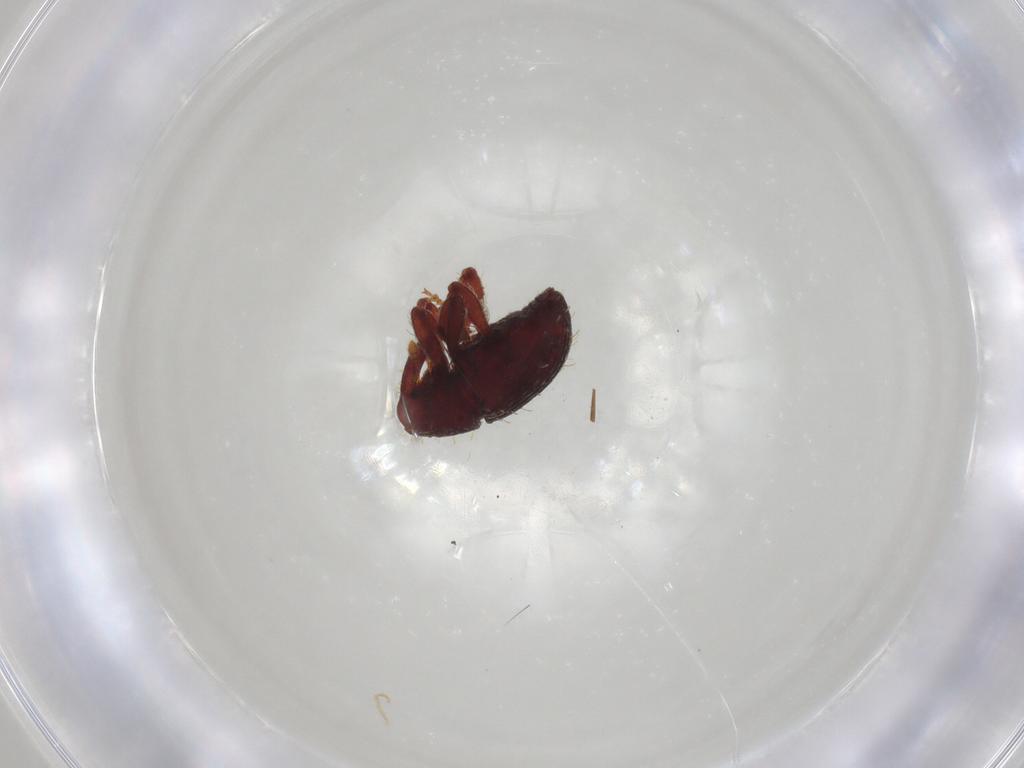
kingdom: Animalia
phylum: Arthropoda
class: Insecta
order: Coleoptera
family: Curculionidae
